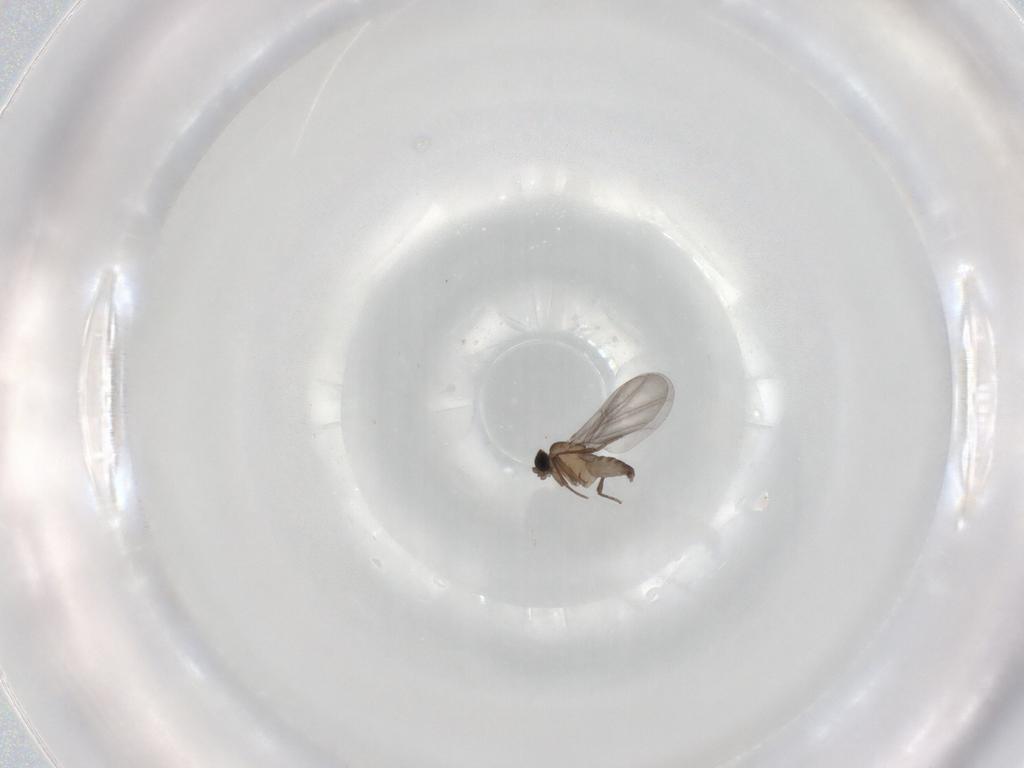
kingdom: Animalia
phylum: Arthropoda
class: Insecta
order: Diptera
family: Phoridae
